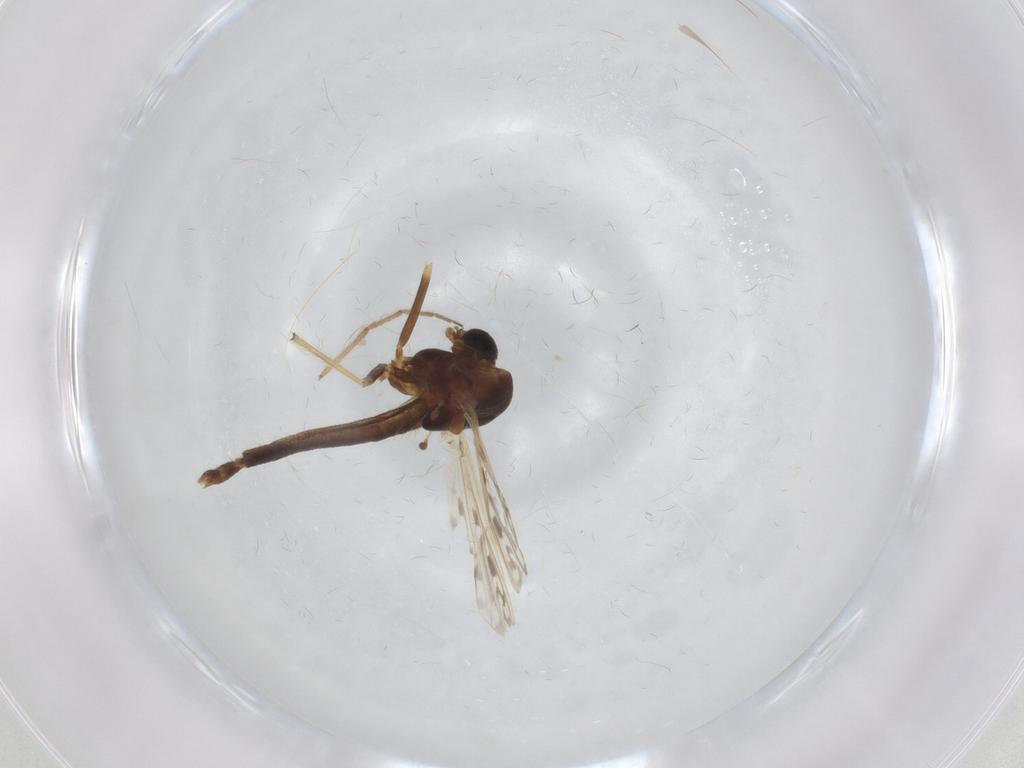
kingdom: Animalia
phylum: Arthropoda
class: Insecta
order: Diptera
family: Chironomidae
